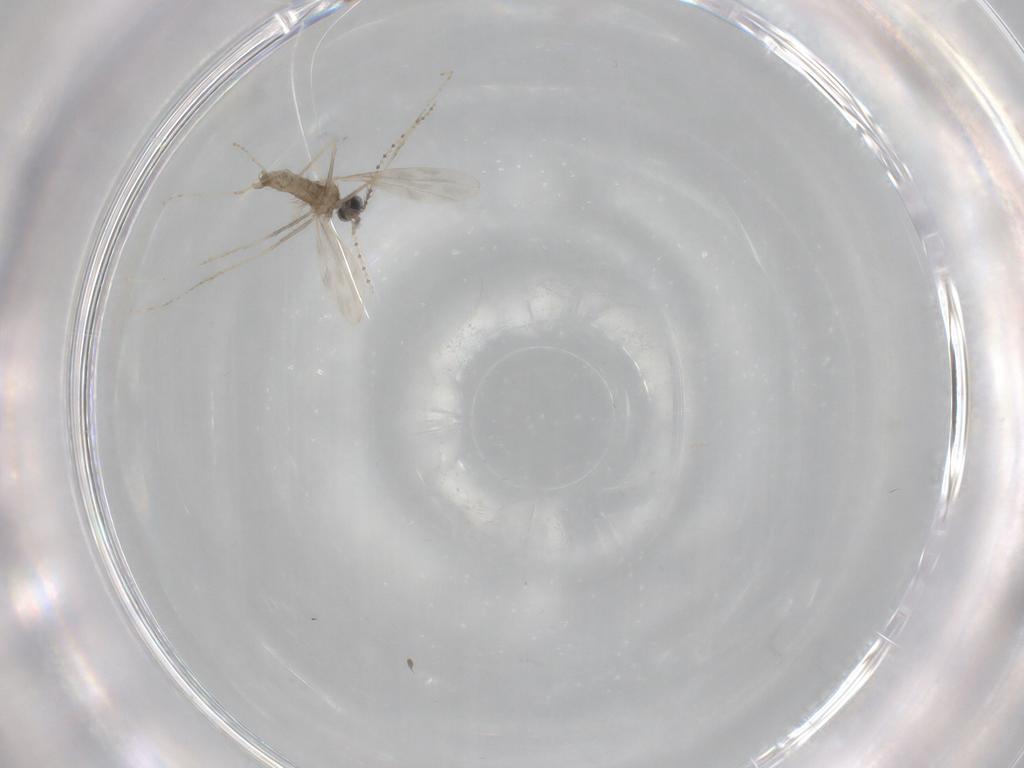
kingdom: Animalia
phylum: Arthropoda
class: Insecta
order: Diptera
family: Cecidomyiidae
